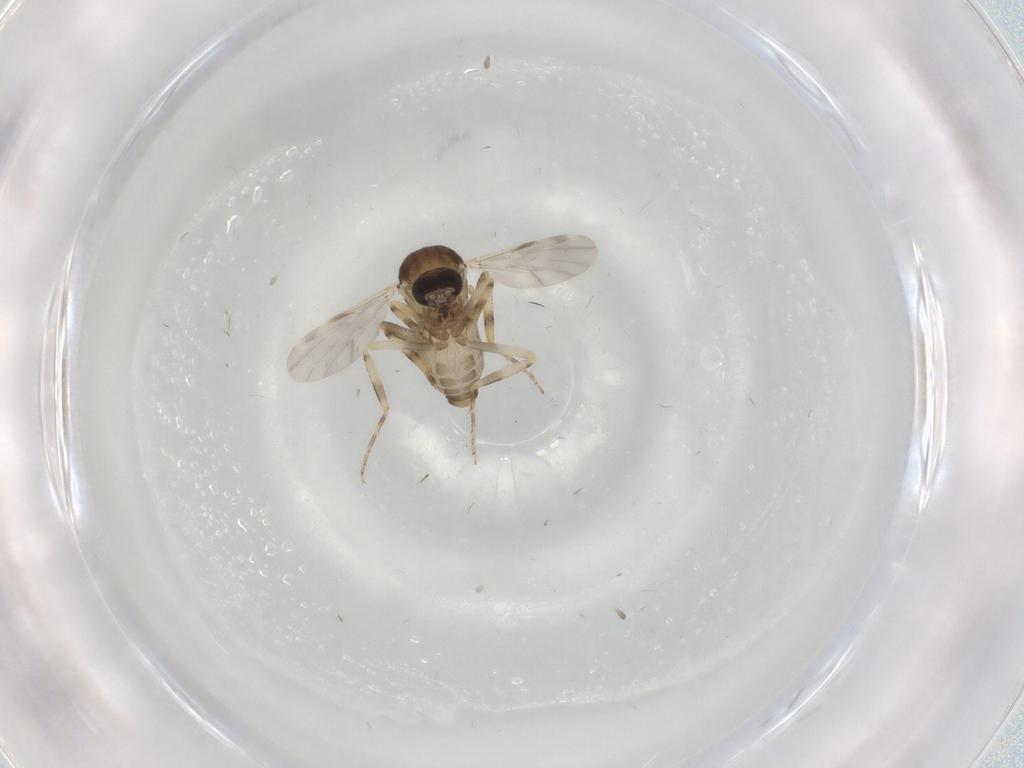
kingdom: Animalia
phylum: Arthropoda
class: Insecta
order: Diptera
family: Ceratopogonidae
